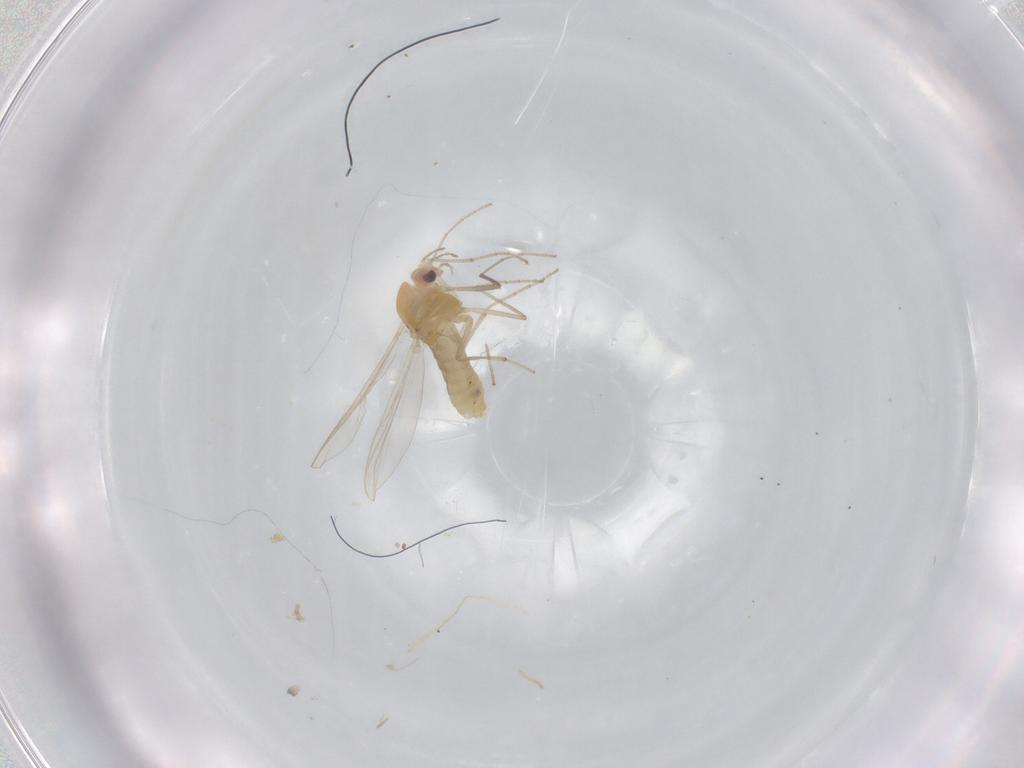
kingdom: Animalia
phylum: Arthropoda
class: Insecta
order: Diptera
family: Chironomidae
